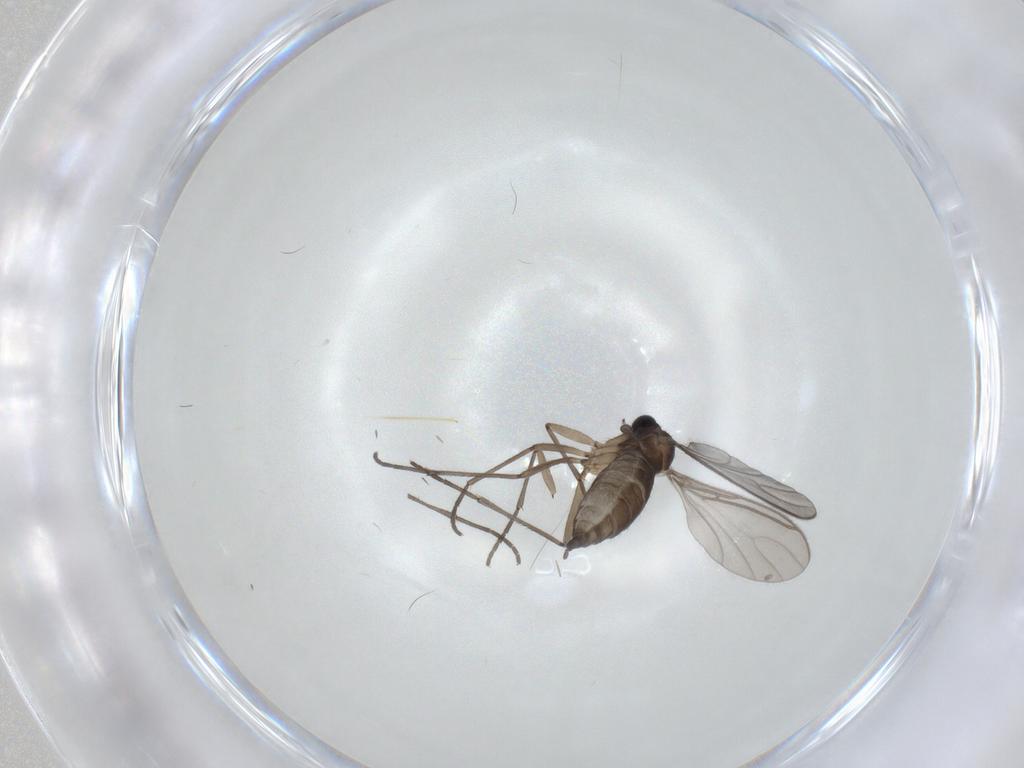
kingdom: Animalia
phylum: Arthropoda
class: Insecta
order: Diptera
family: Sciaridae
